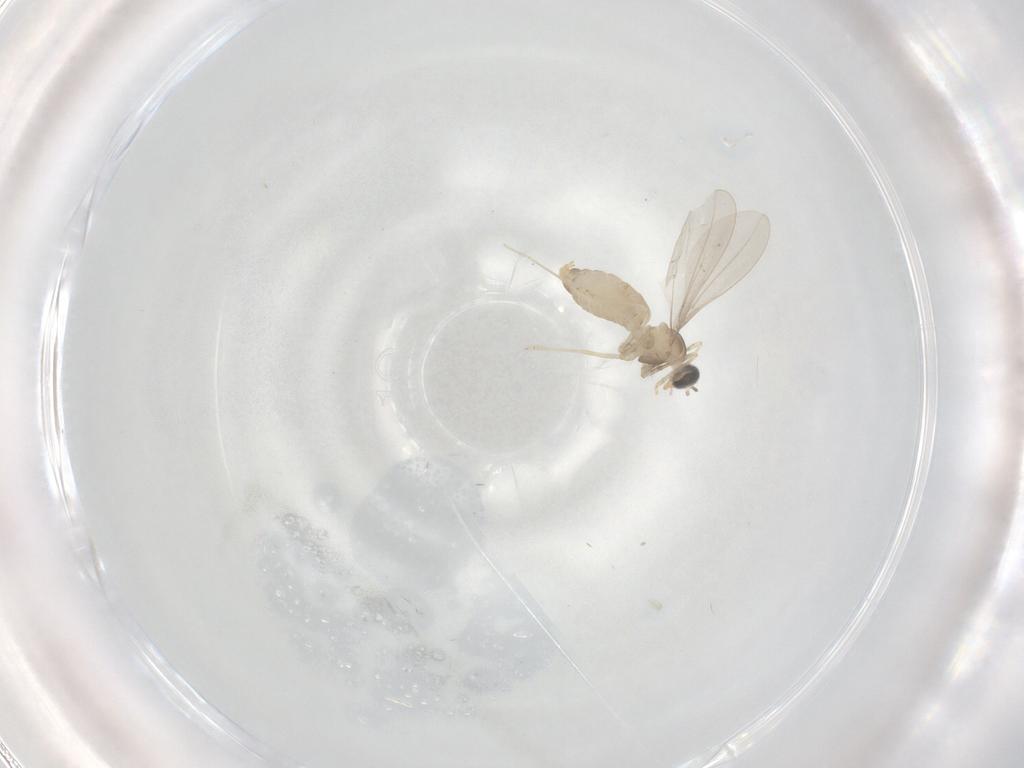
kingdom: Animalia
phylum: Arthropoda
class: Insecta
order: Diptera
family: Cecidomyiidae
